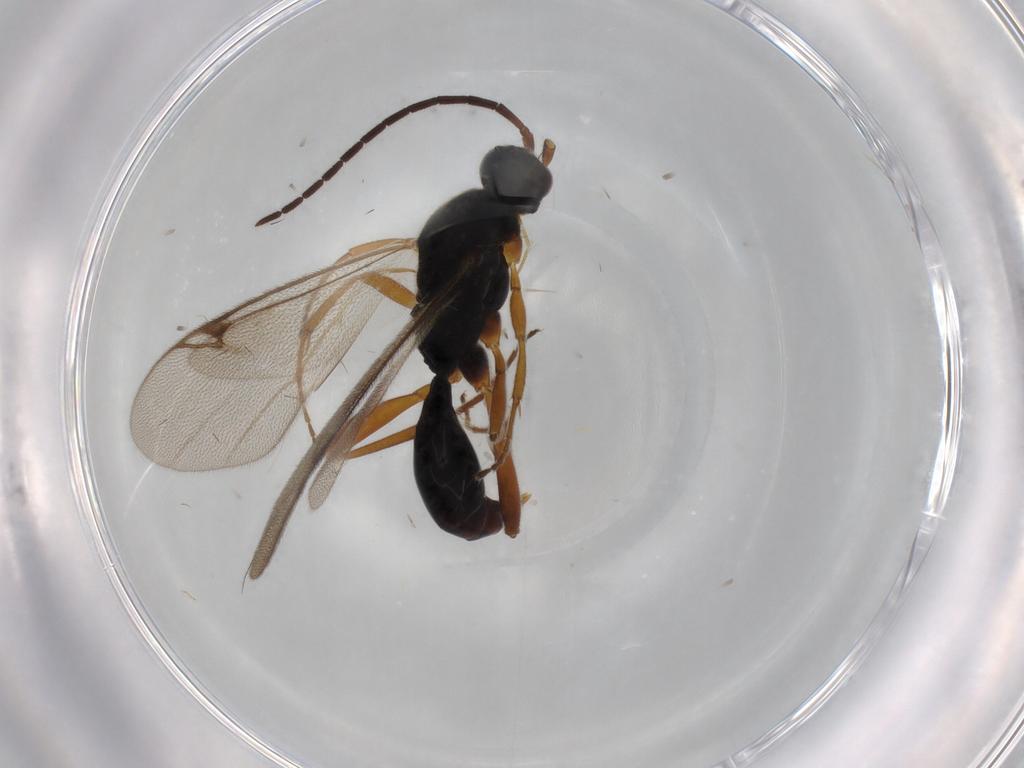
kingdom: Animalia
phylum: Arthropoda
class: Insecta
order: Hymenoptera
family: Proctotrupidae
